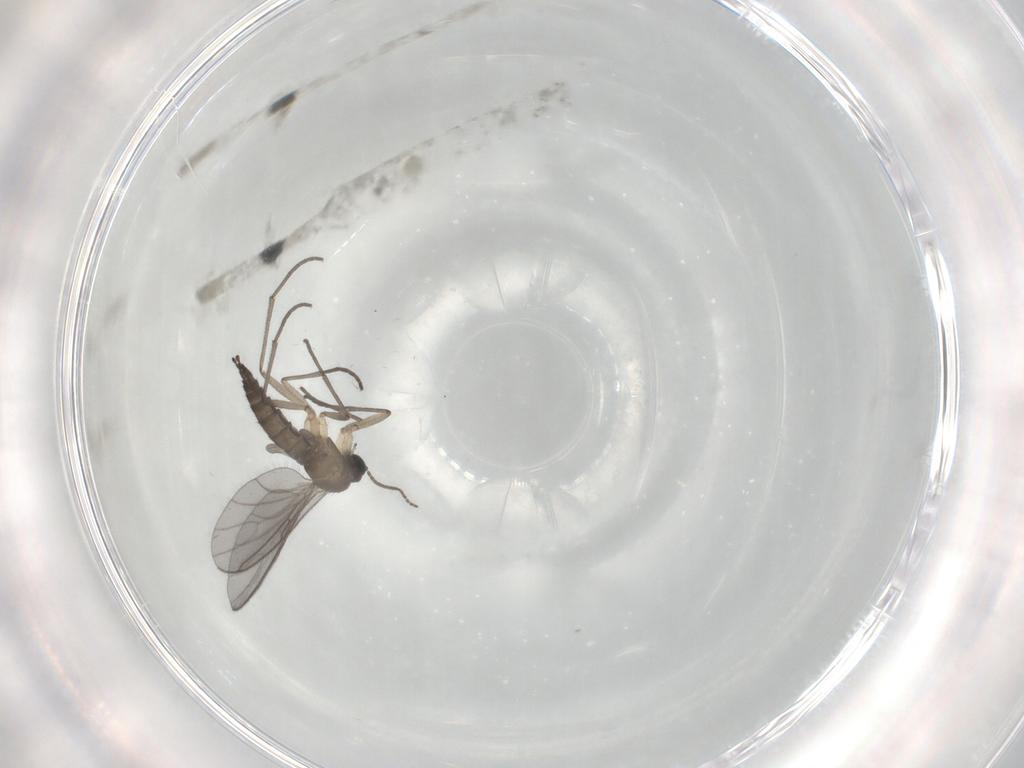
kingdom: Animalia
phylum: Arthropoda
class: Insecta
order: Diptera
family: Sciaridae
